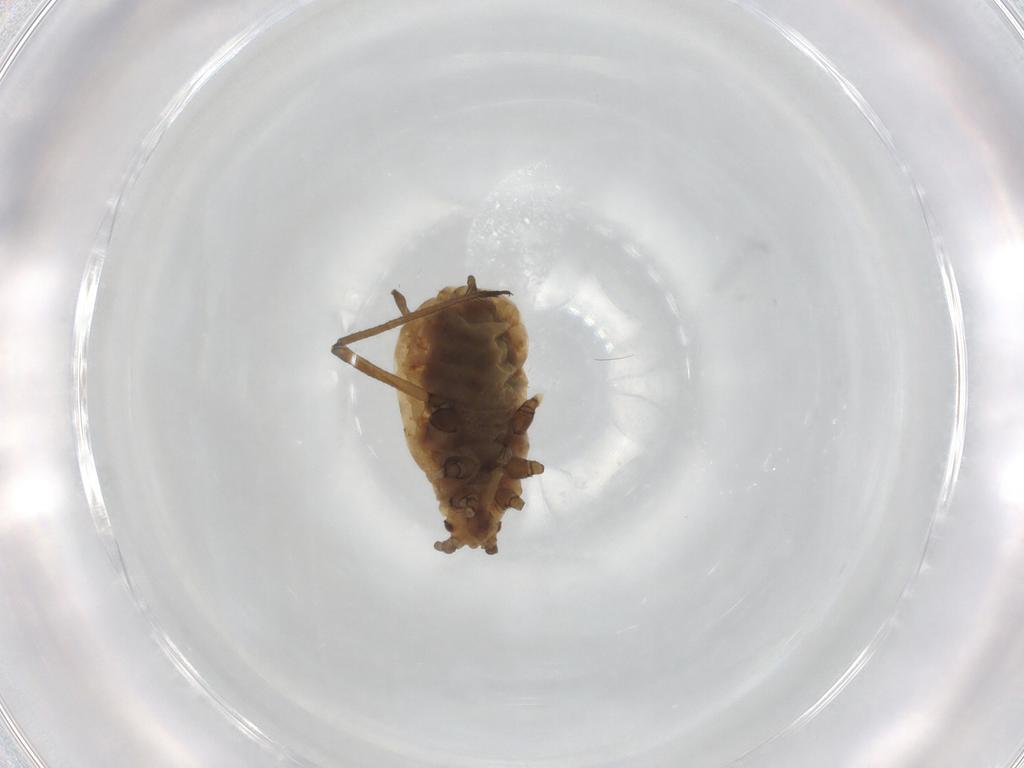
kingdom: Animalia
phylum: Arthropoda
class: Insecta
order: Hemiptera
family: Aphididae
